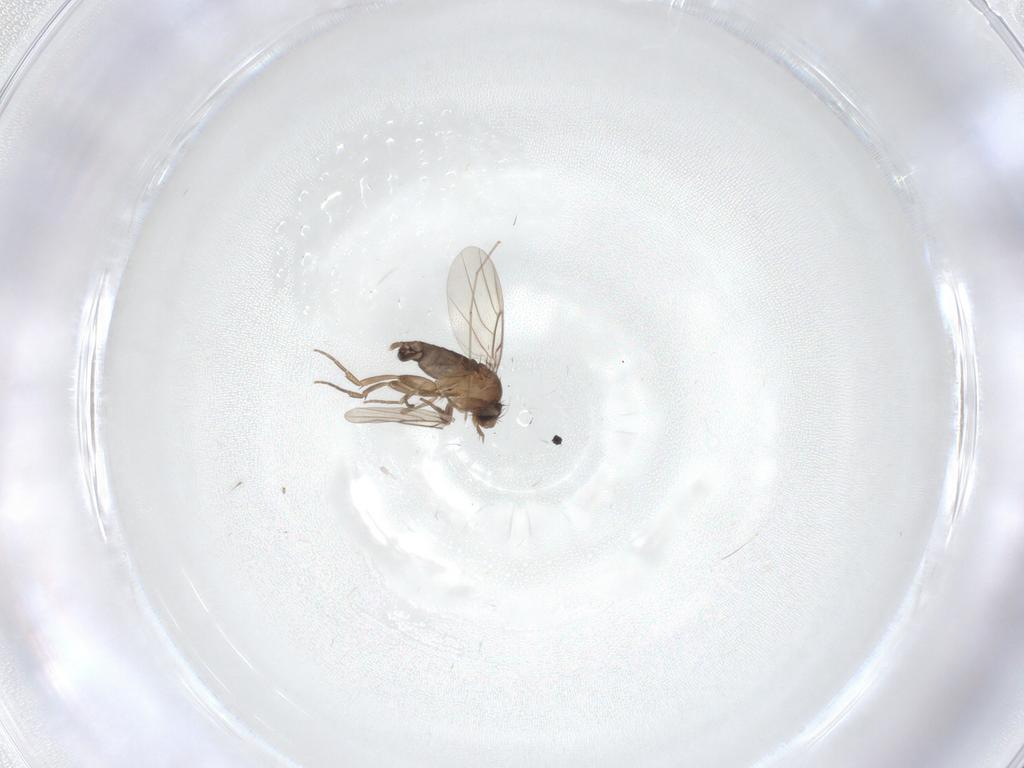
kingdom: Animalia
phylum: Arthropoda
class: Insecta
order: Diptera
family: Phoridae
